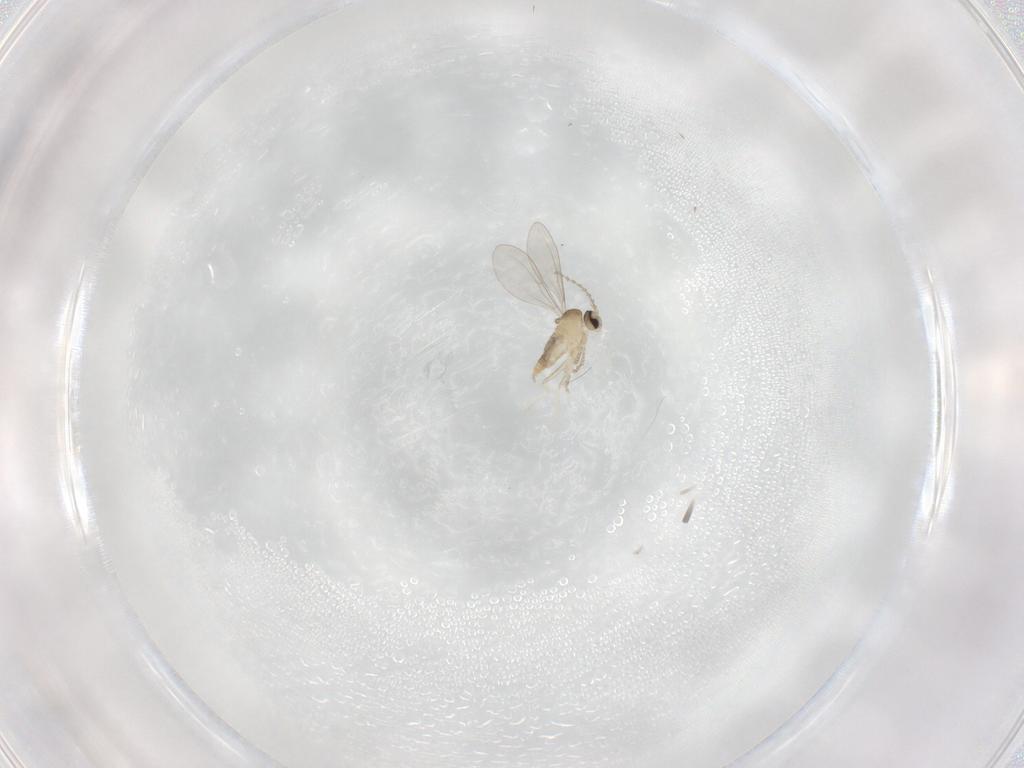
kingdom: Animalia
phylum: Arthropoda
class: Insecta
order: Diptera
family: Cecidomyiidae
